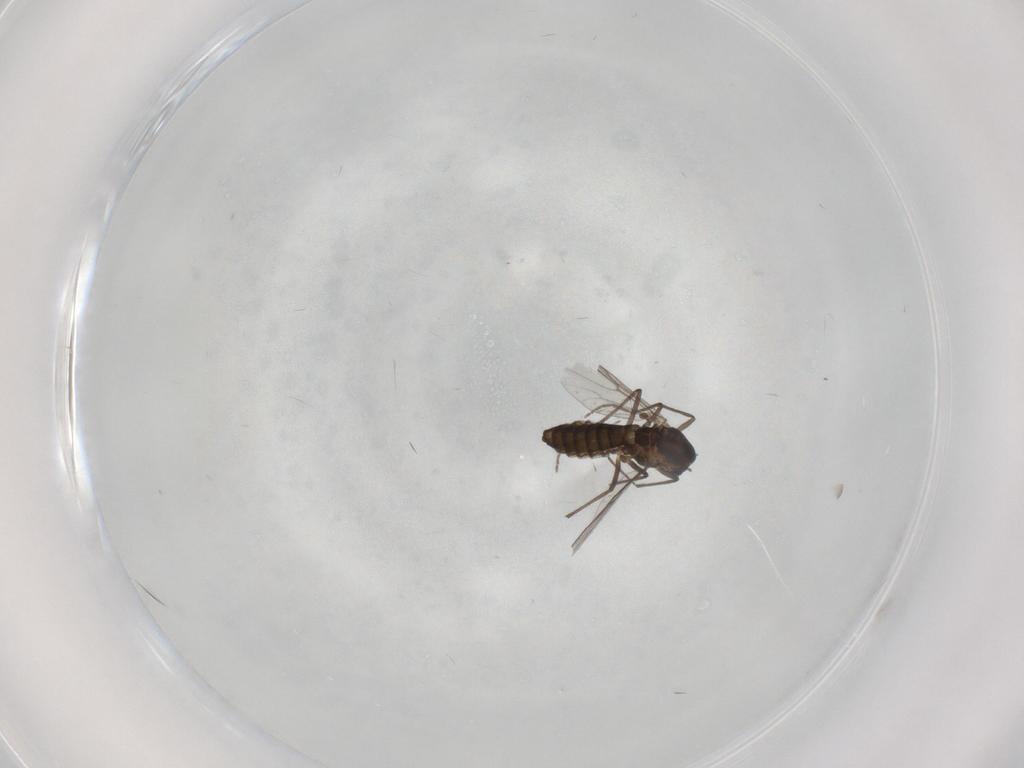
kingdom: Animalia
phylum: Arthropoda
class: Insecta
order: Diptera
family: Chironomidae
